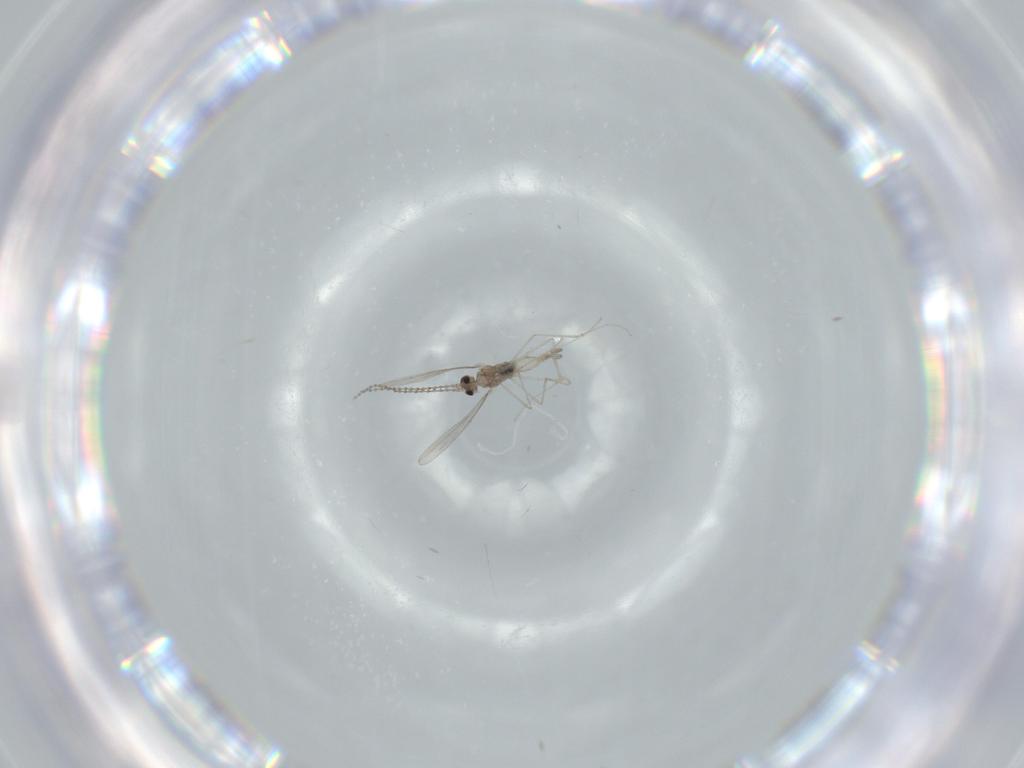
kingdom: Animalia
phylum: Arthropoda
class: Insecta
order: Diptera
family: Cecidomyiidae
